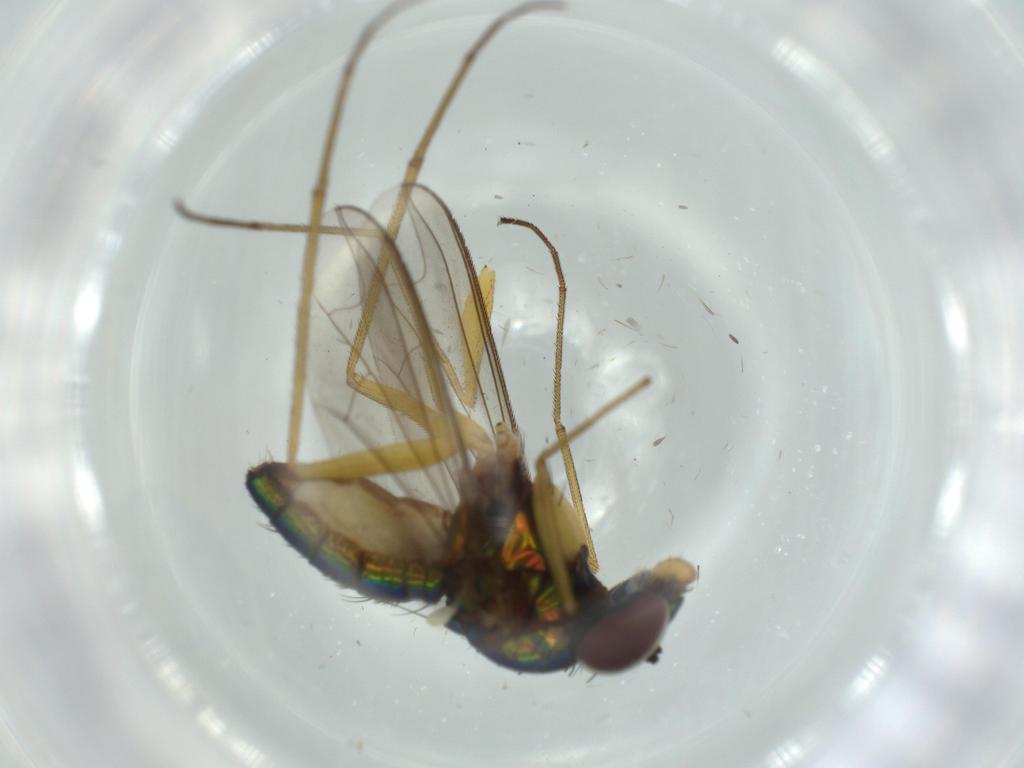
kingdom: Animalia
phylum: Arthropoda
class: Insecta
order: Diptera
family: Dolichopodidae
